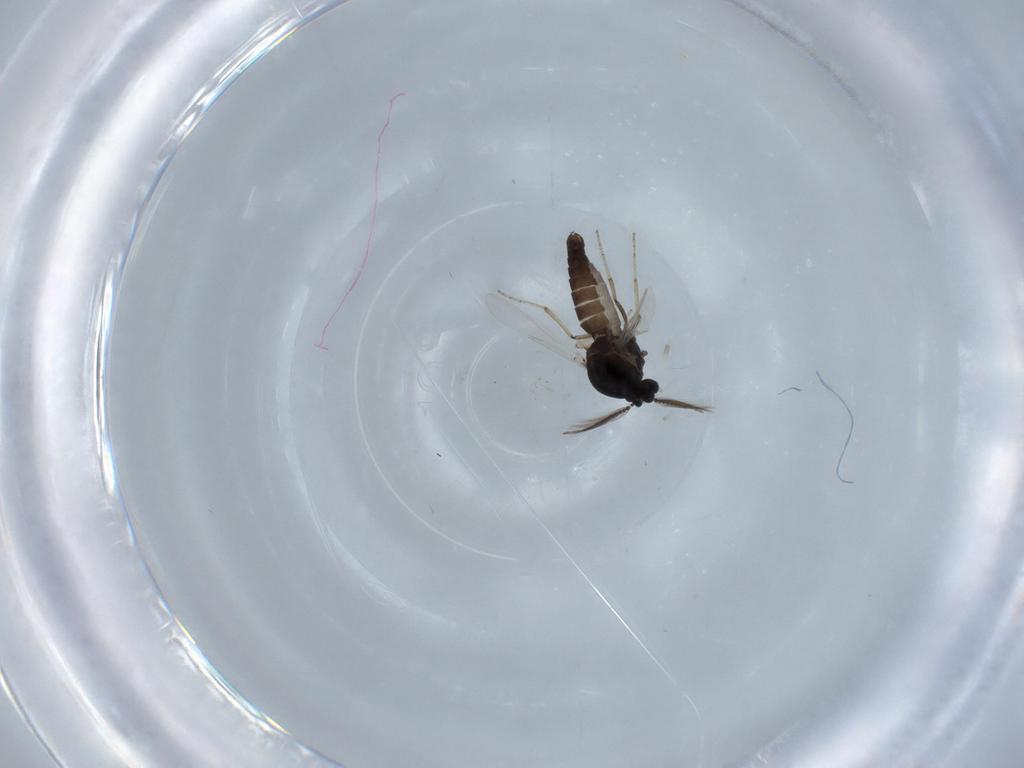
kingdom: Animalia
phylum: Arthropoda
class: Insecta
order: Diptera
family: Ceratopogonidae
